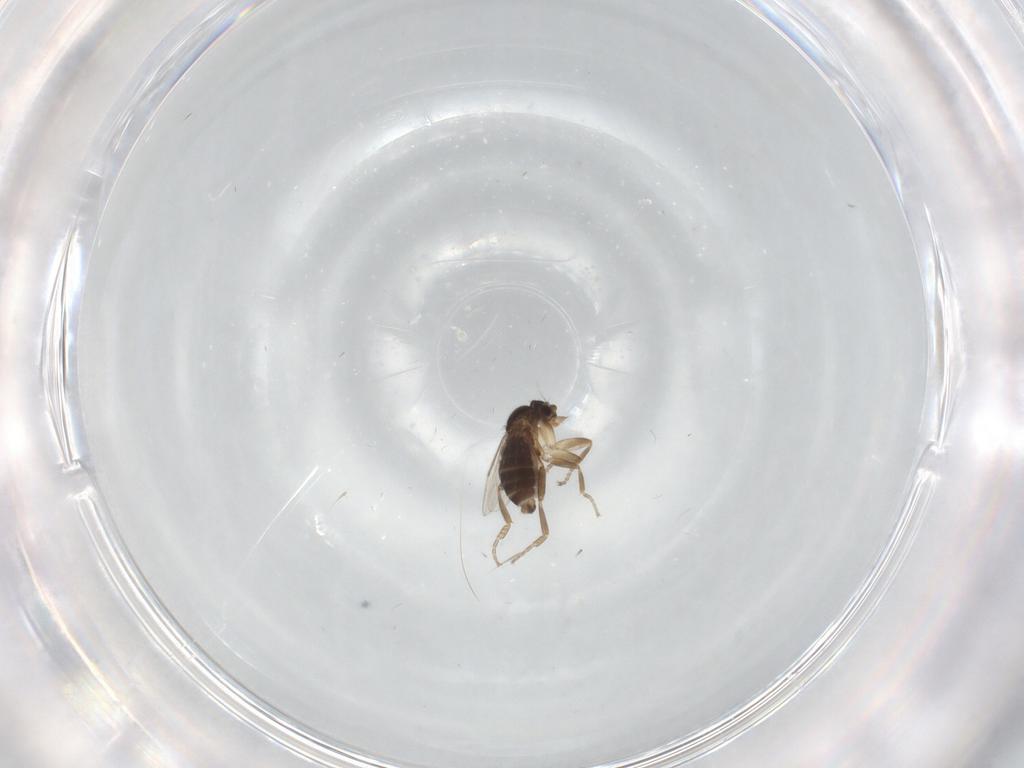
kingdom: Animalia
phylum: Arthropoda
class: Insecta
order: Diptera
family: Phoridae
